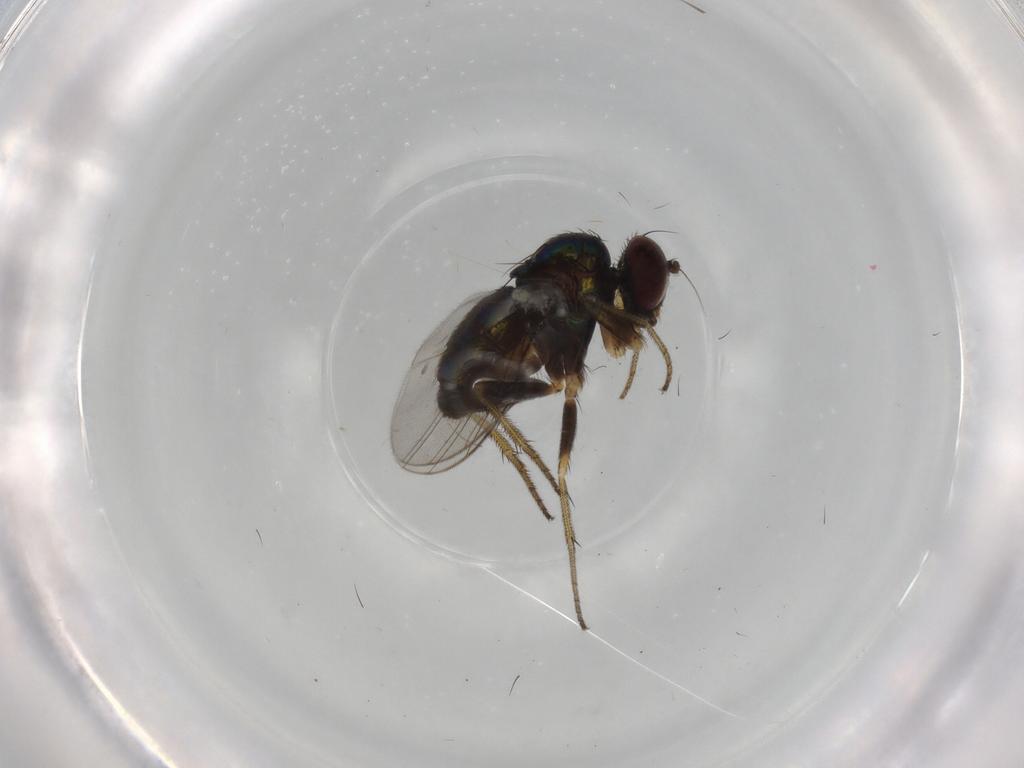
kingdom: Animalia
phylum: Arthropoda
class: Insecta
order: Diptera
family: Dolichopodidae
